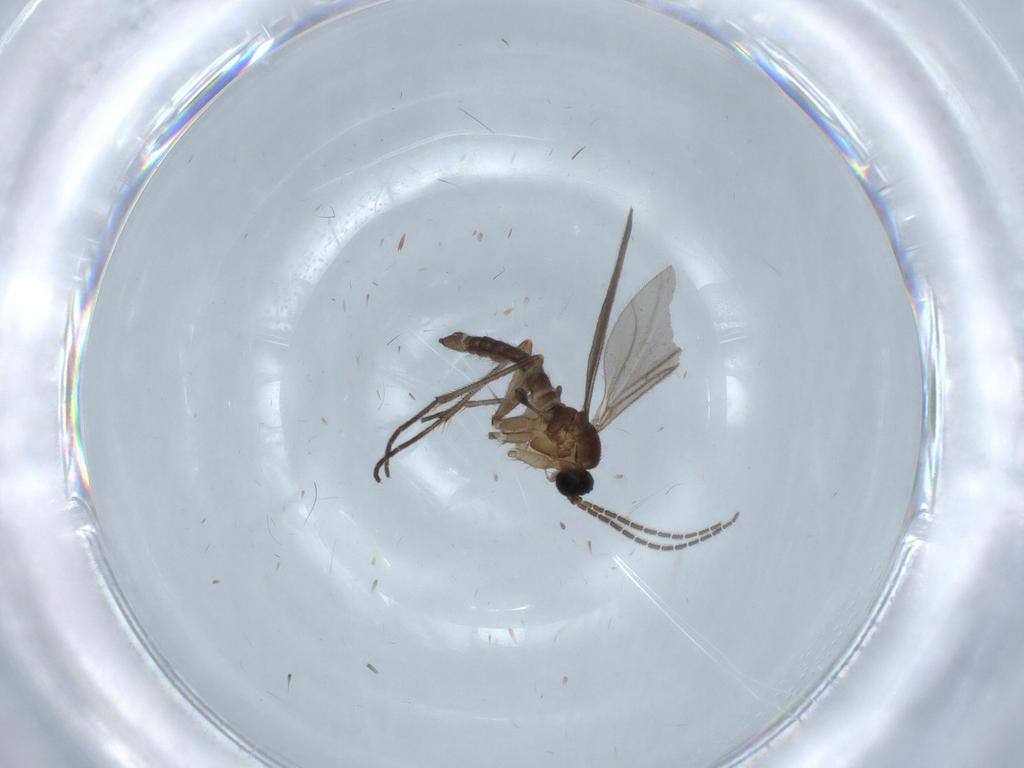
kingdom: Animalia
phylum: Arthropoda
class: Insecta
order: Diptera
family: Sciaridae
